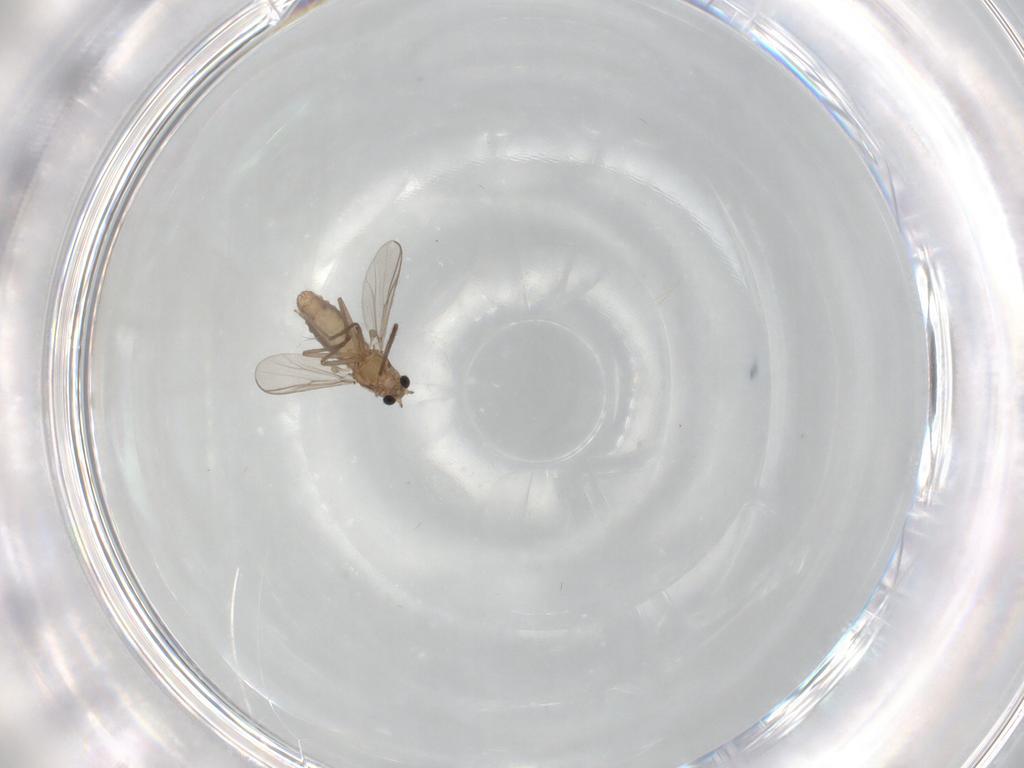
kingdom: Animalia
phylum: Arthropoda
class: Insecta
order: Diptera
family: Chironomidae
